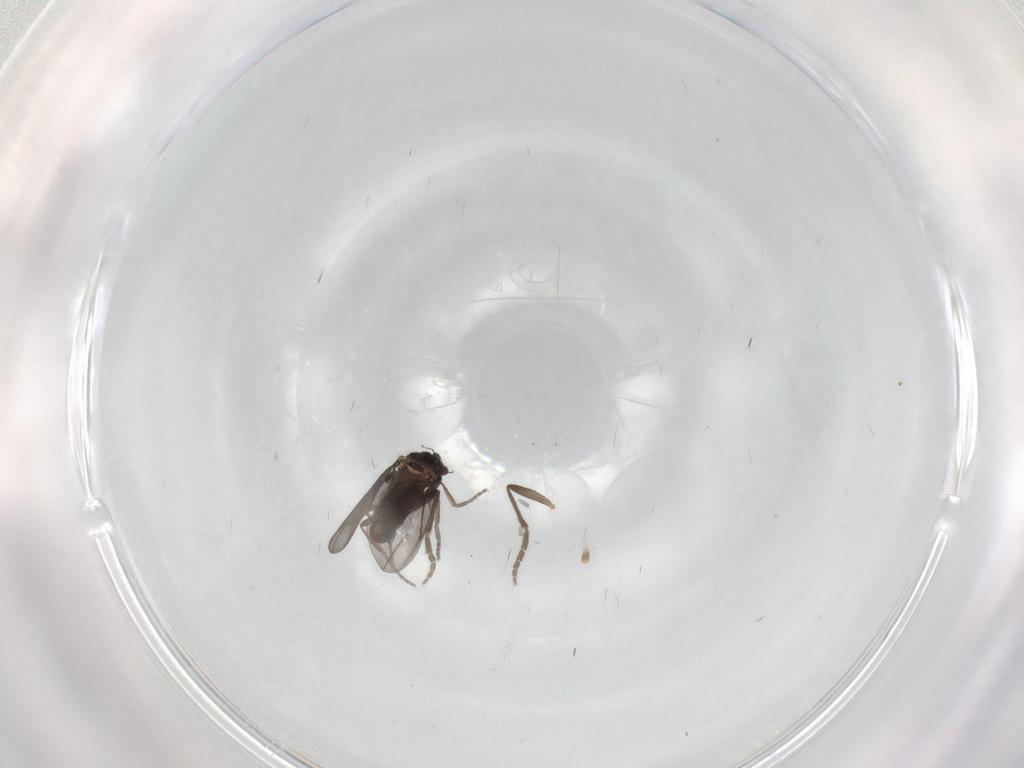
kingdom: Animalia
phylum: Arthropoda
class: Insecta
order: Diptera
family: Phoridae
